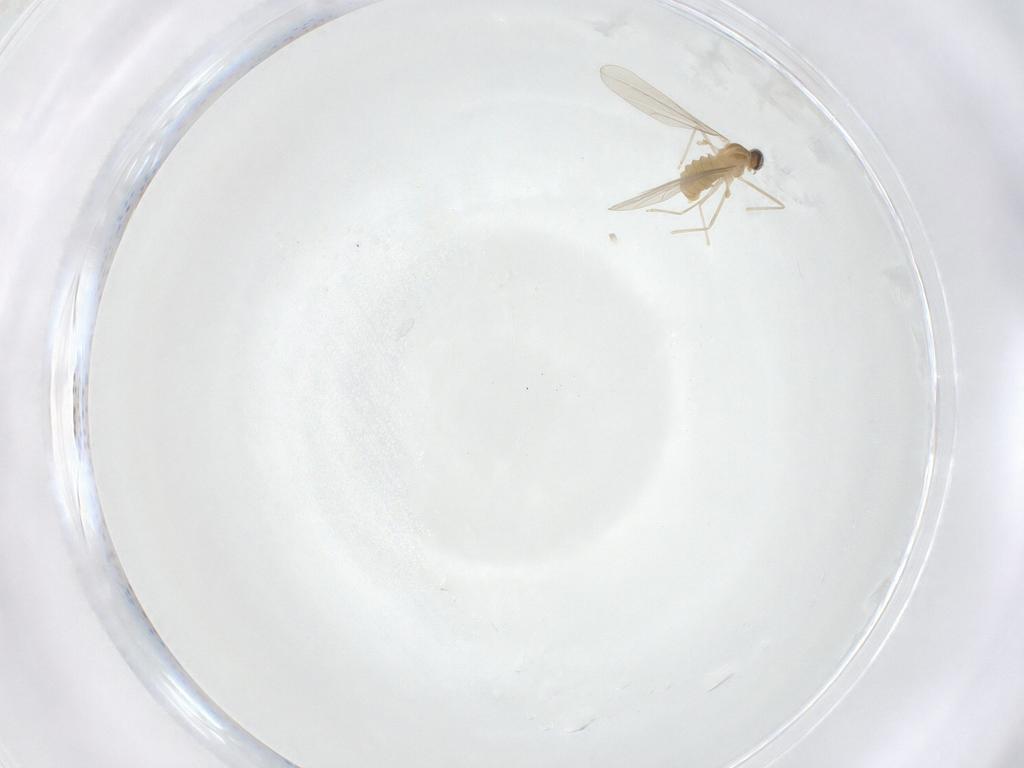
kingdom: Animalia
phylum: Arthropoda
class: Insecta
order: Diptera
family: Cecidomyiidae
